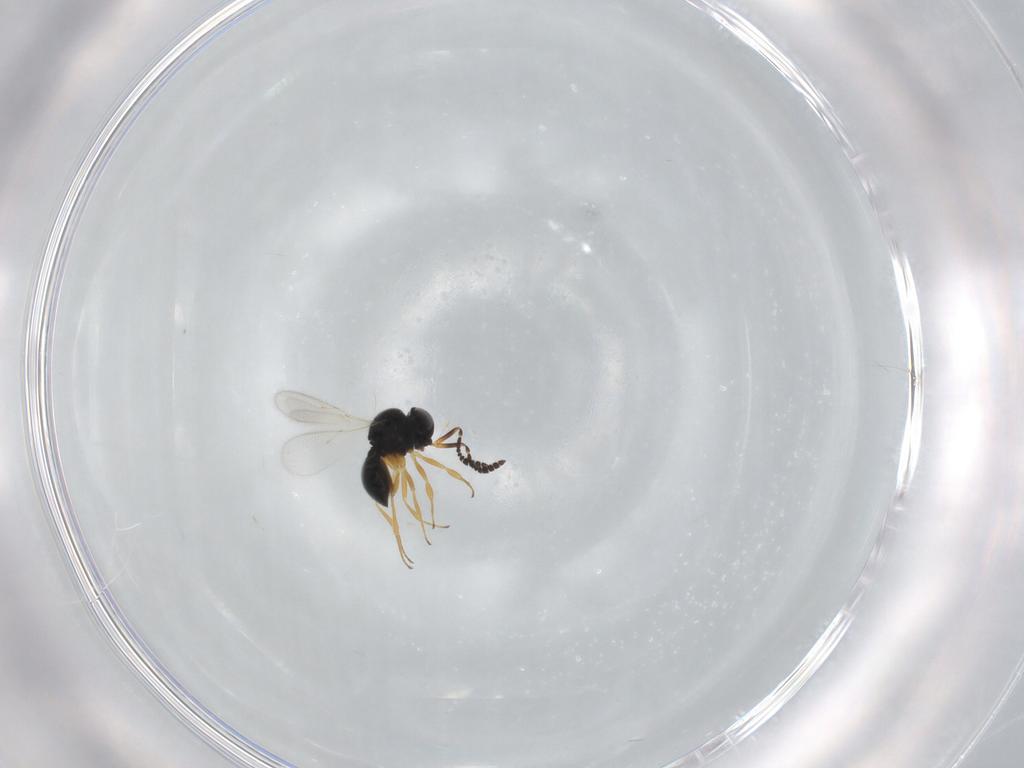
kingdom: Animalia
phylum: Arthropoda
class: Insecta
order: Hymenoptera
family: Scelionidae
